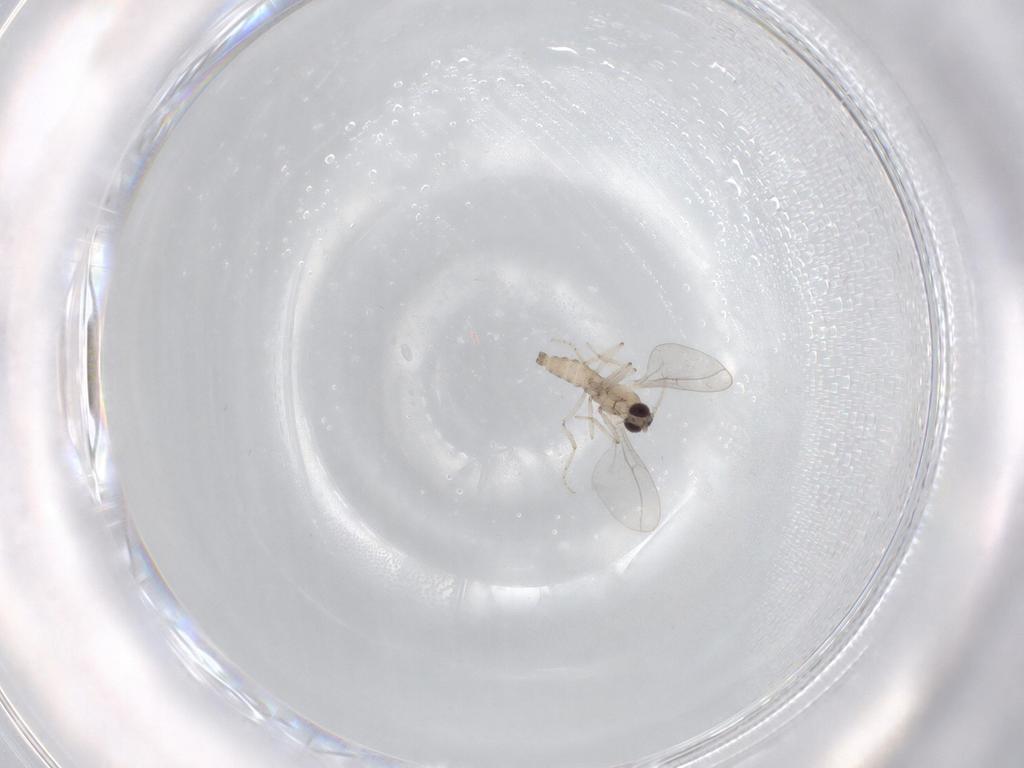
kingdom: Animalia
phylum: Arthropoda
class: Insecta
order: Diptera
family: Cecidomyiidae
